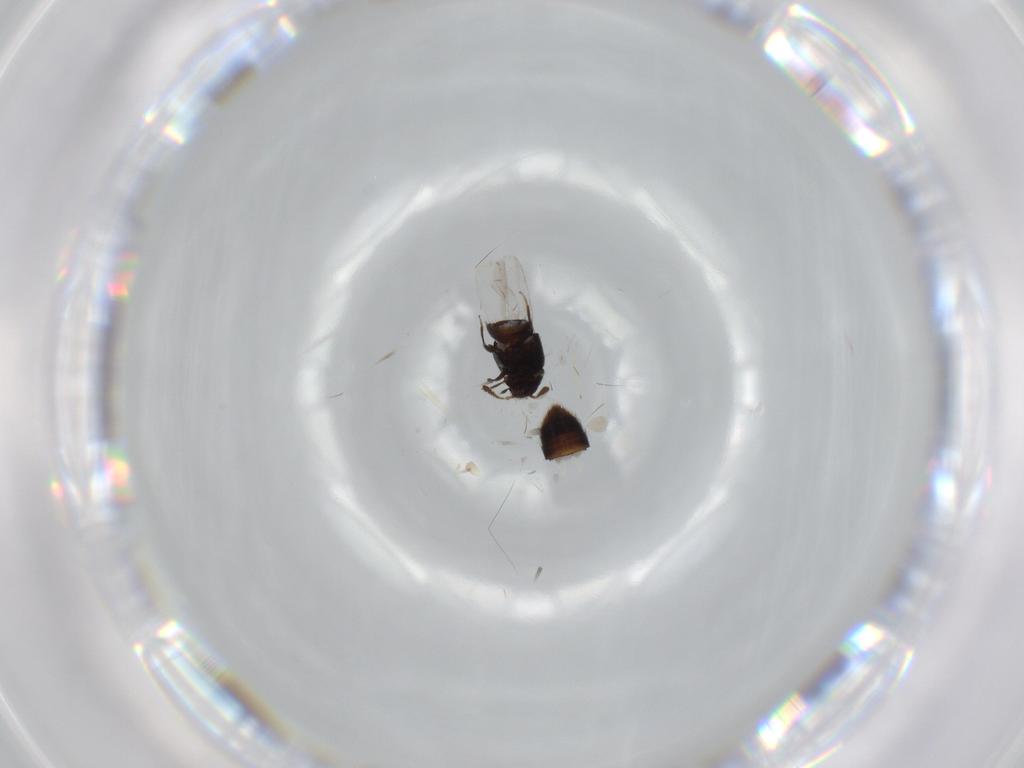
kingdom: Animalia
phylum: Arthropoda
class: Insecta
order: Coleoptera
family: Staphylinidae
